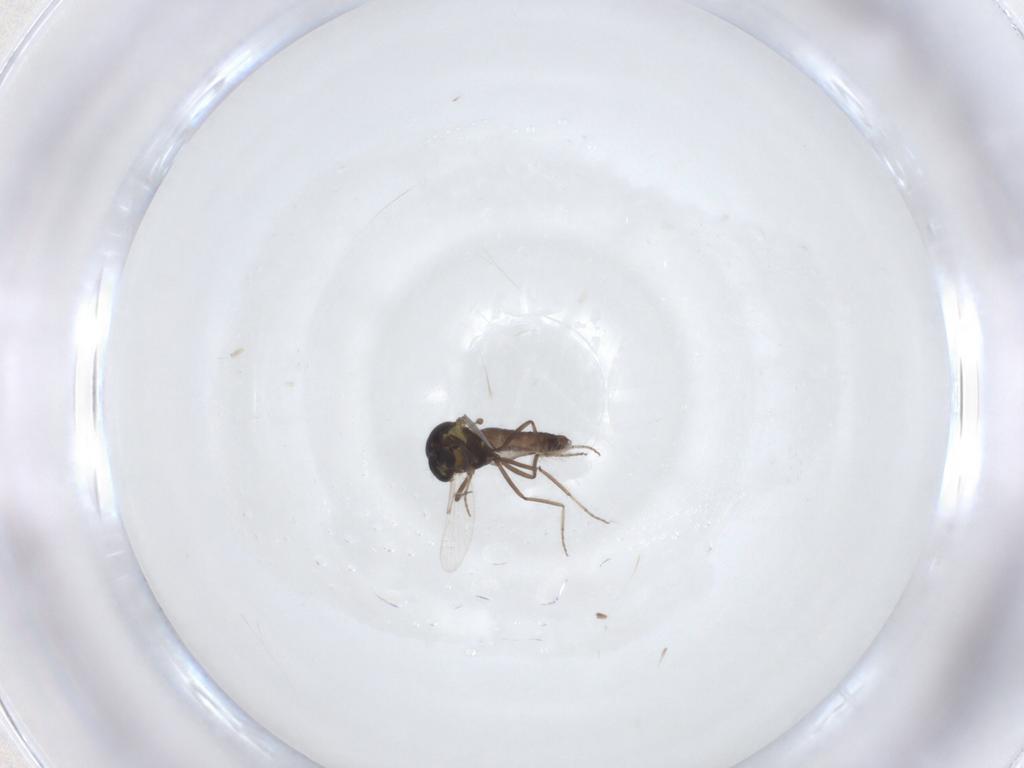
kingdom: Animalia
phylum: Arthropoda
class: Insecta
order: Diptera
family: Ceratopogonidae
